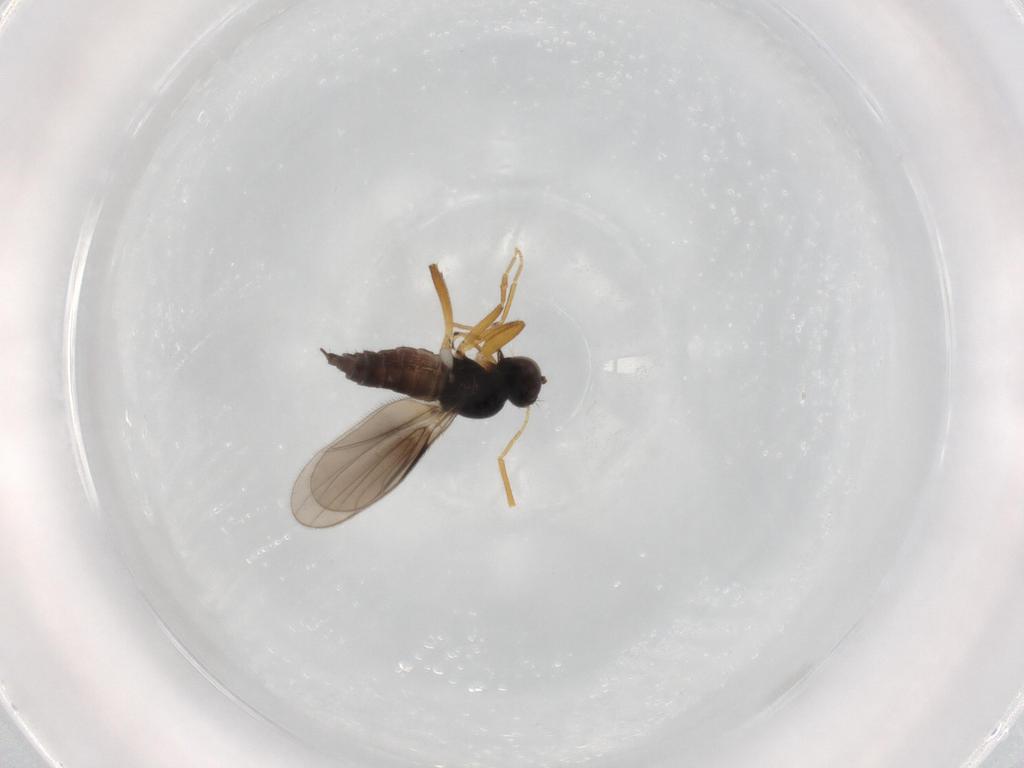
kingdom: Animalia
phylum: Arthropoda
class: Insecta
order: Diptera
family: Hybotidae
